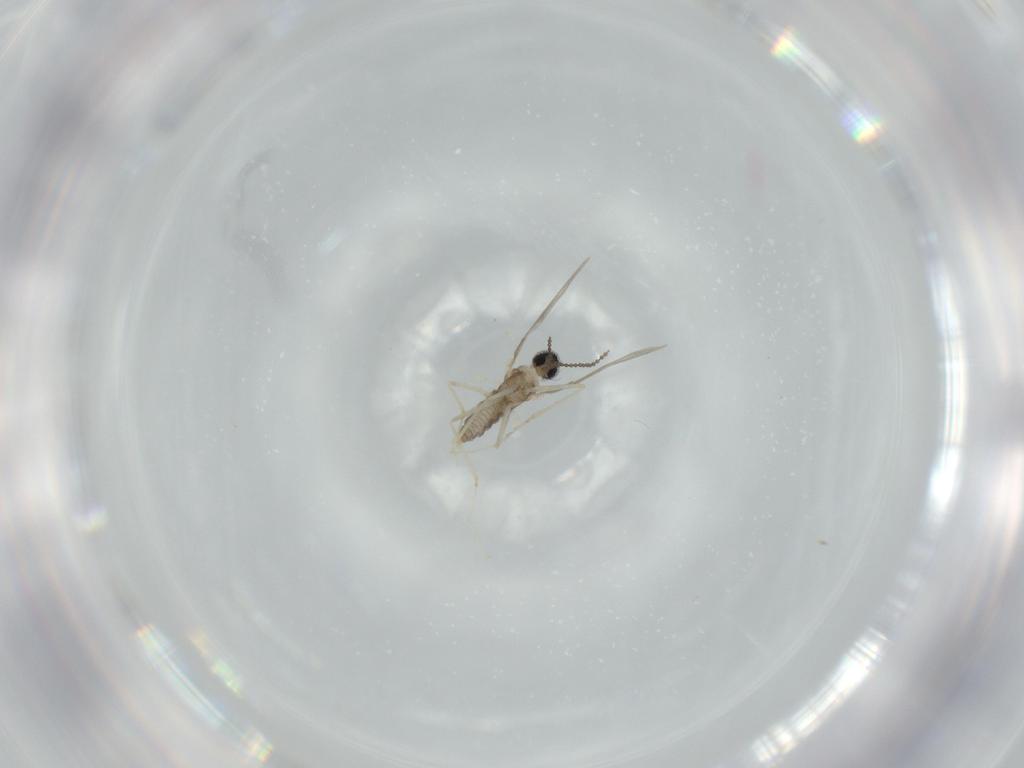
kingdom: Animalia
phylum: Arthropoda
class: Insecta
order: Diptera
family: Cecidomyiidae
